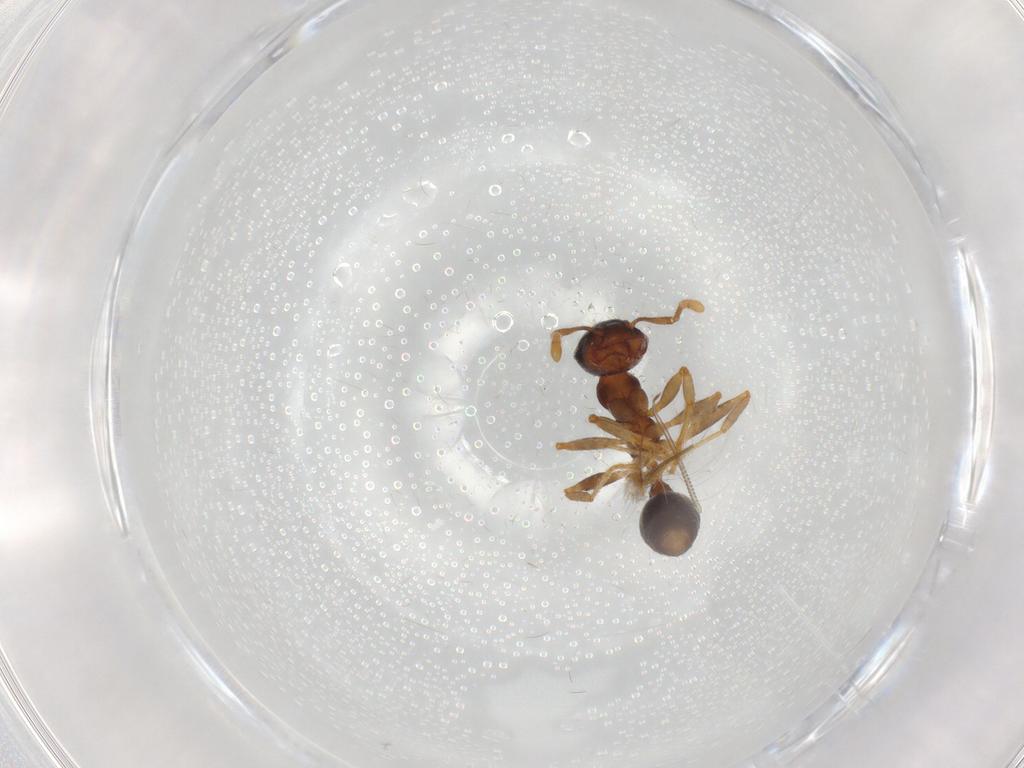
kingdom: Animalia
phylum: Arthropoda
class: Insecta
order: Hymenoptera
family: Formicidae
